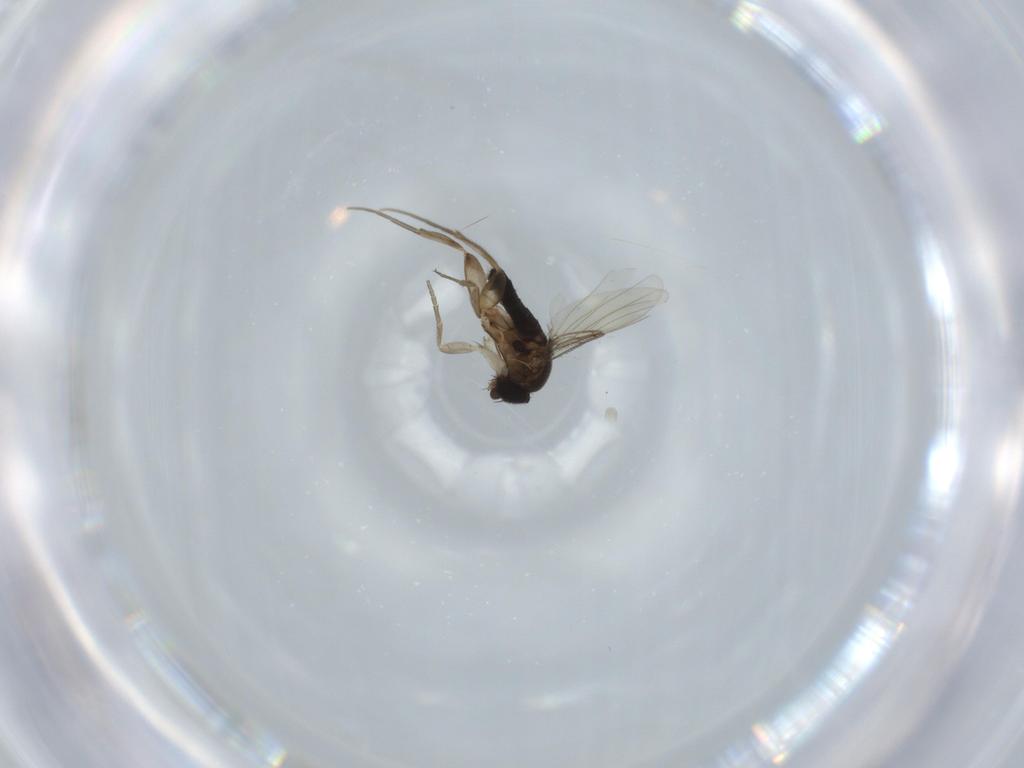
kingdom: Animalia
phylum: Arthropoda
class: Insecta
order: Diptera
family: Phoridae
